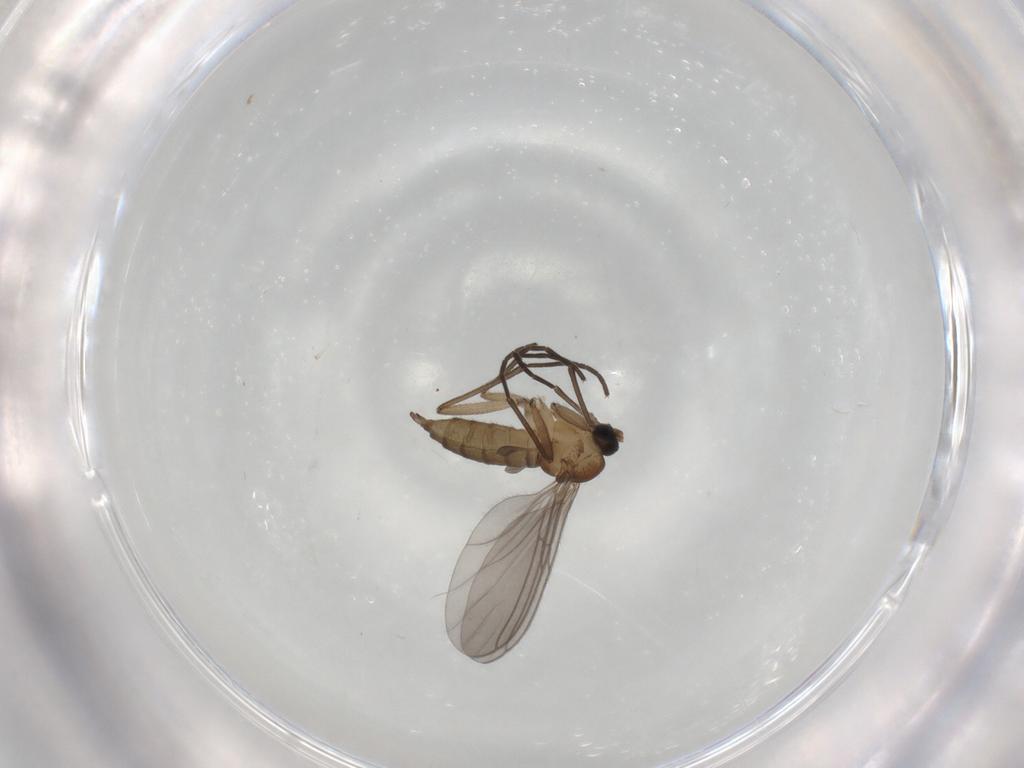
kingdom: Animalia
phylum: Arthropoda
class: Insecta
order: Diptera
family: Sciaridae
